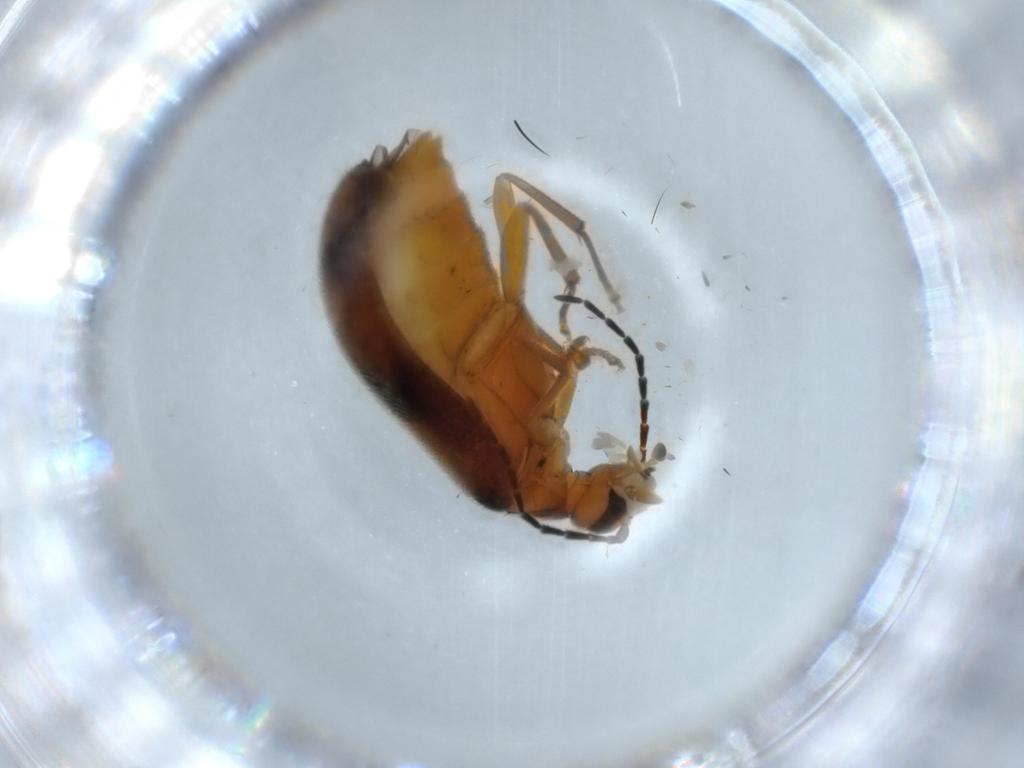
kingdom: Animalia
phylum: Arthropoda
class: Insecta
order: Coleoptera
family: Scraptiidae
